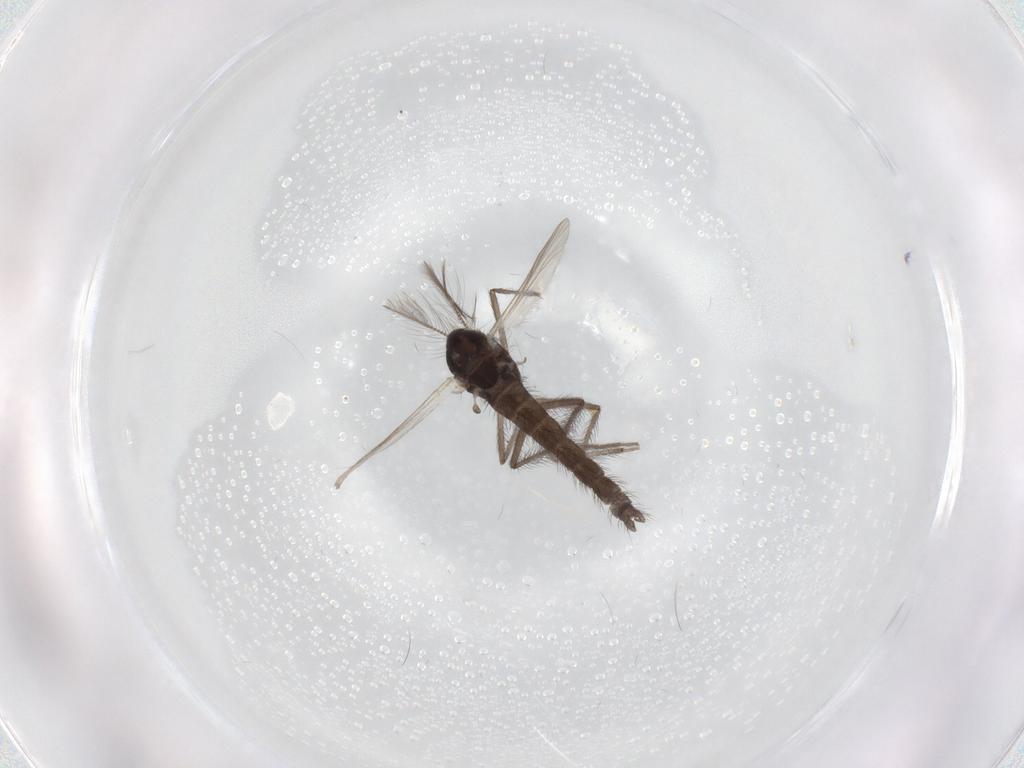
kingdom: Animalia
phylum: Arthropoda
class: Insecta
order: Diptera
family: Chironomidae
